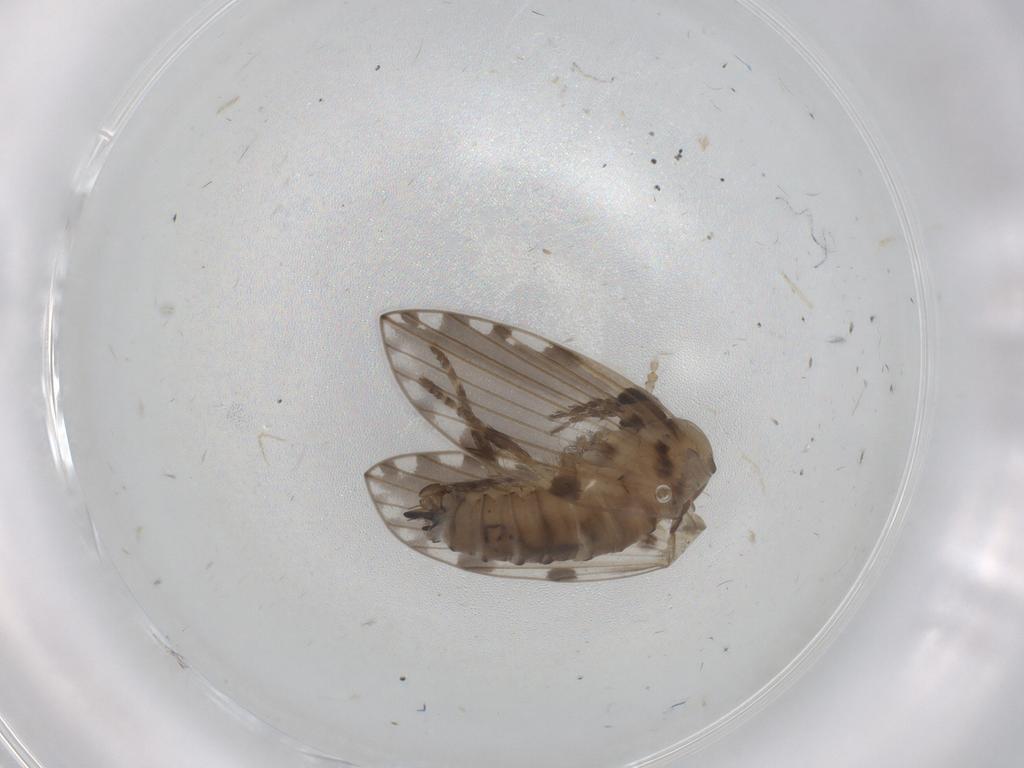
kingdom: Animalia
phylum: Arthropoda
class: Insecta
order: Diptera
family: Psychodidae
